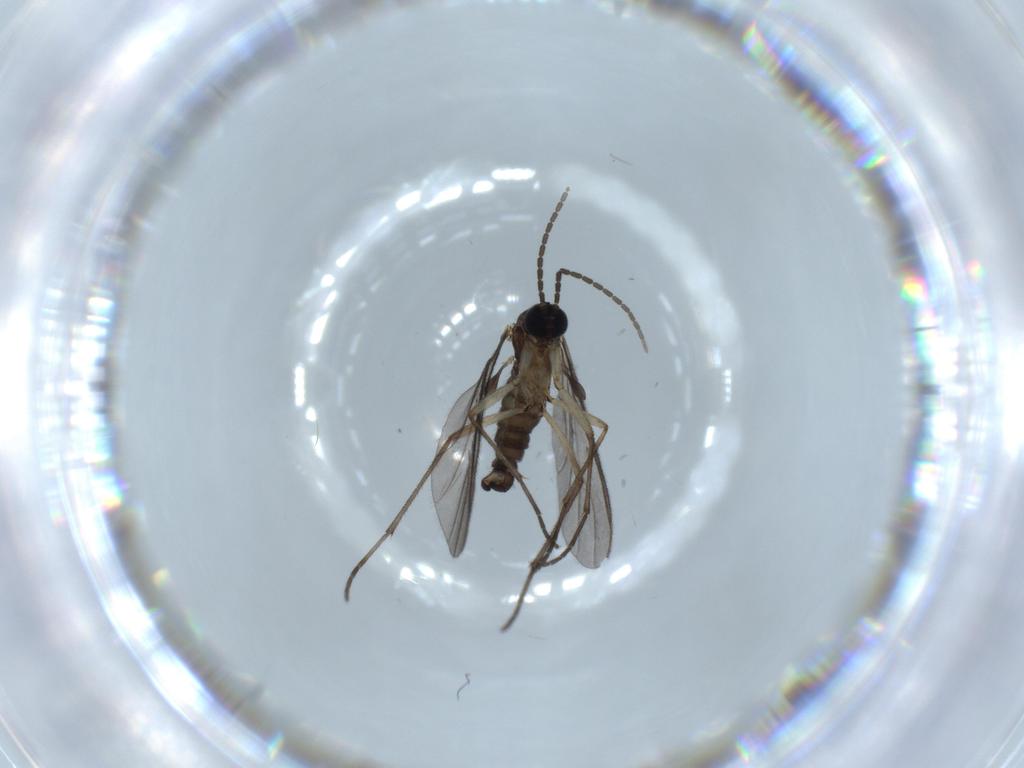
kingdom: Animalia
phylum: Arthropoda
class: Insecta
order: Diptera
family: Sciaridae
